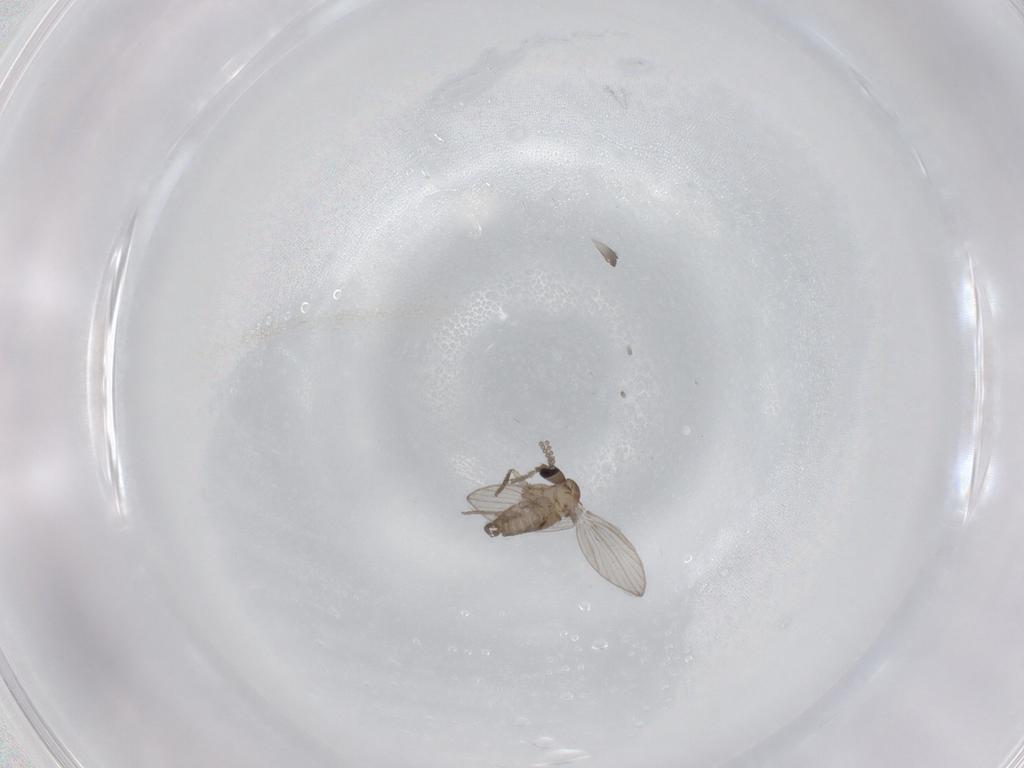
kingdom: Animalia
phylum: Arthropoda
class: Insecta
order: Diptera
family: Psychodidae
